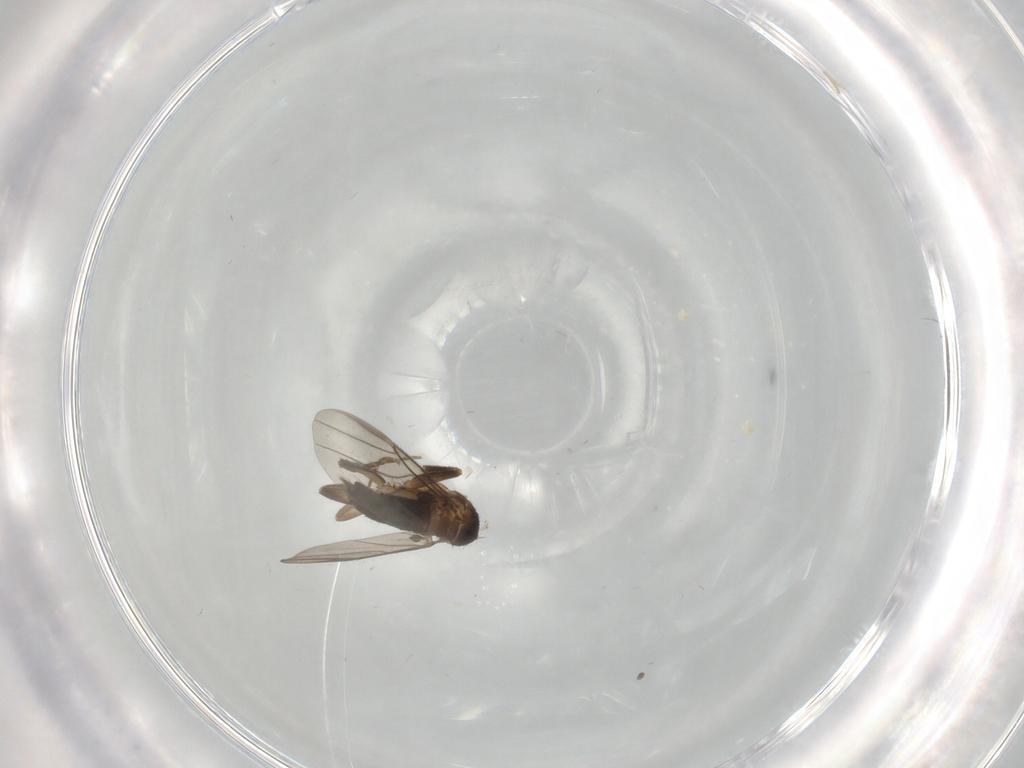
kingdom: Animalia
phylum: Arthropoda
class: Insecta
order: Diptera
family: Phoridae
